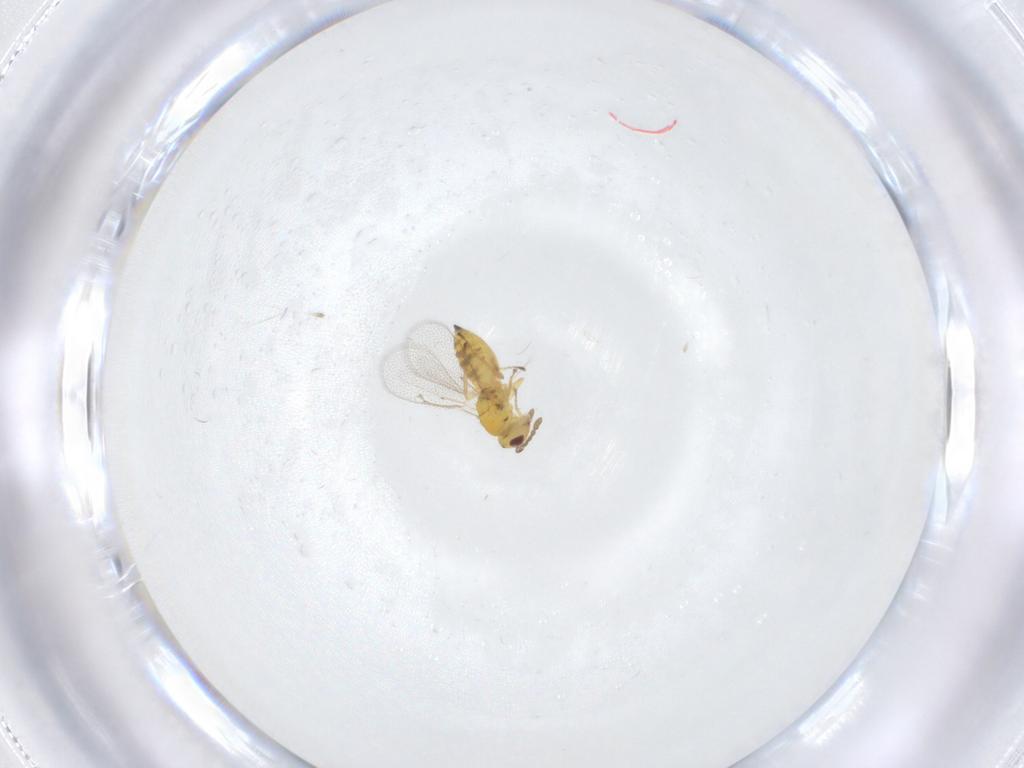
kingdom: Animalia
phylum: Arthropoda
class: Insecta
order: Hymenoptera
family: Eulophidae
